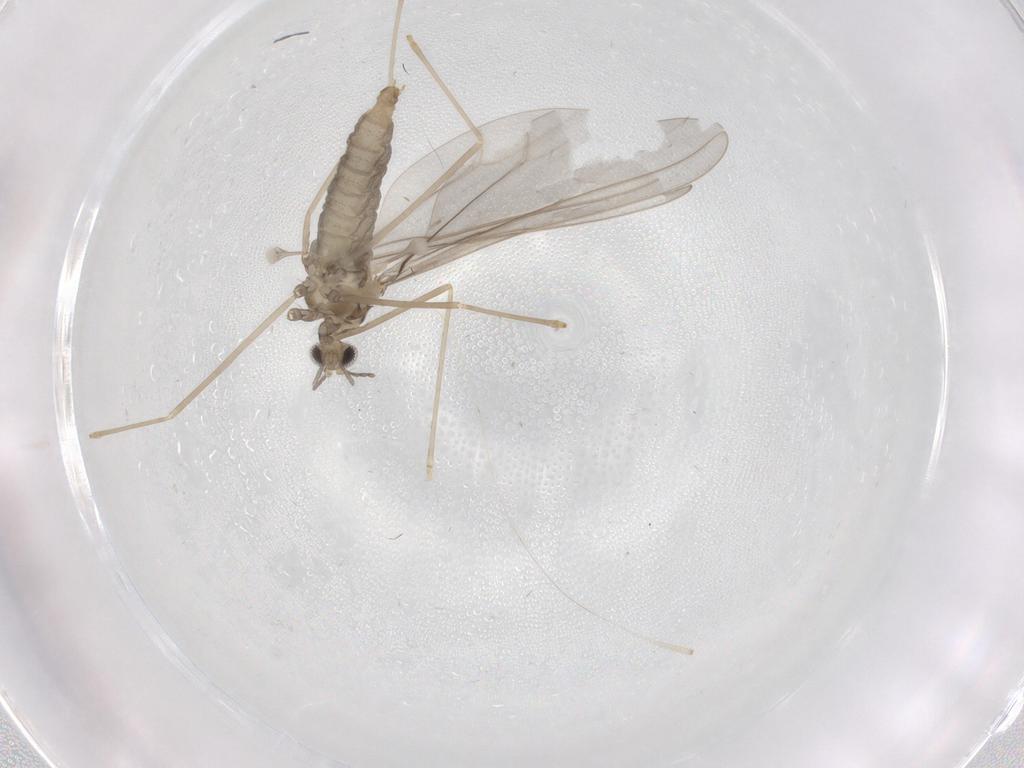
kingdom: Animalia
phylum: Arthropoda
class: Insecta
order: Diptera
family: Cecidomyiidae
